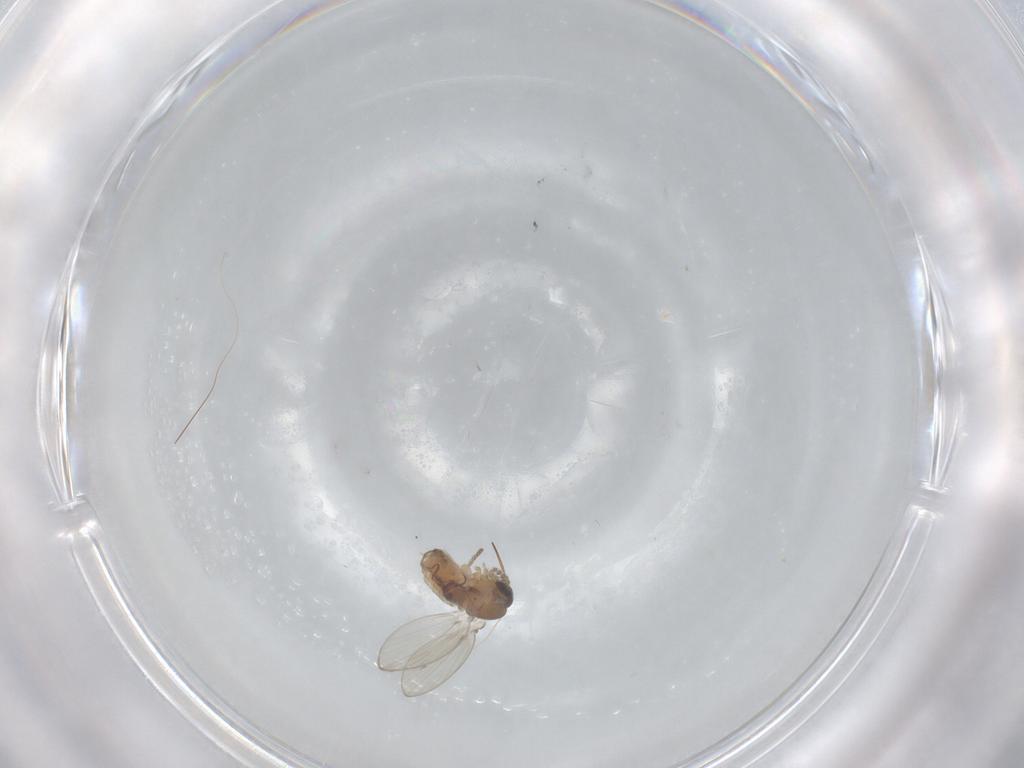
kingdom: Animalia
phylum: Arthropoda
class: Insecta
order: Diptera
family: Psychodidae
